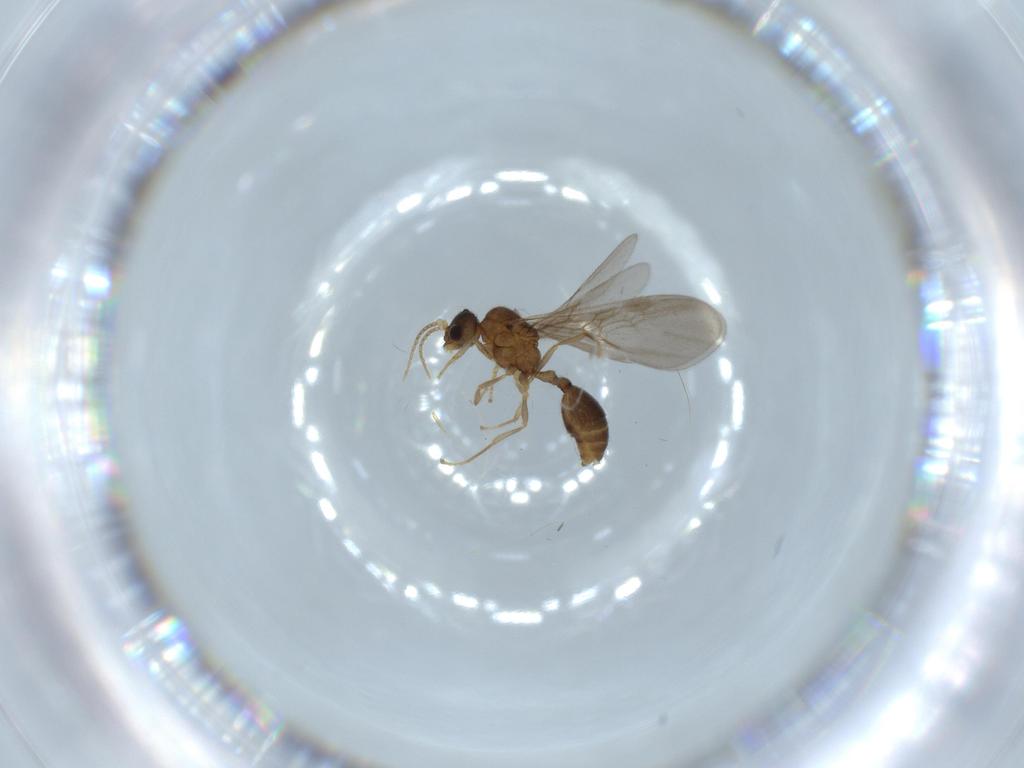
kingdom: Animalia
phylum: Arthropoda
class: Insecta
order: Hymenoptera
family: Formicidae
